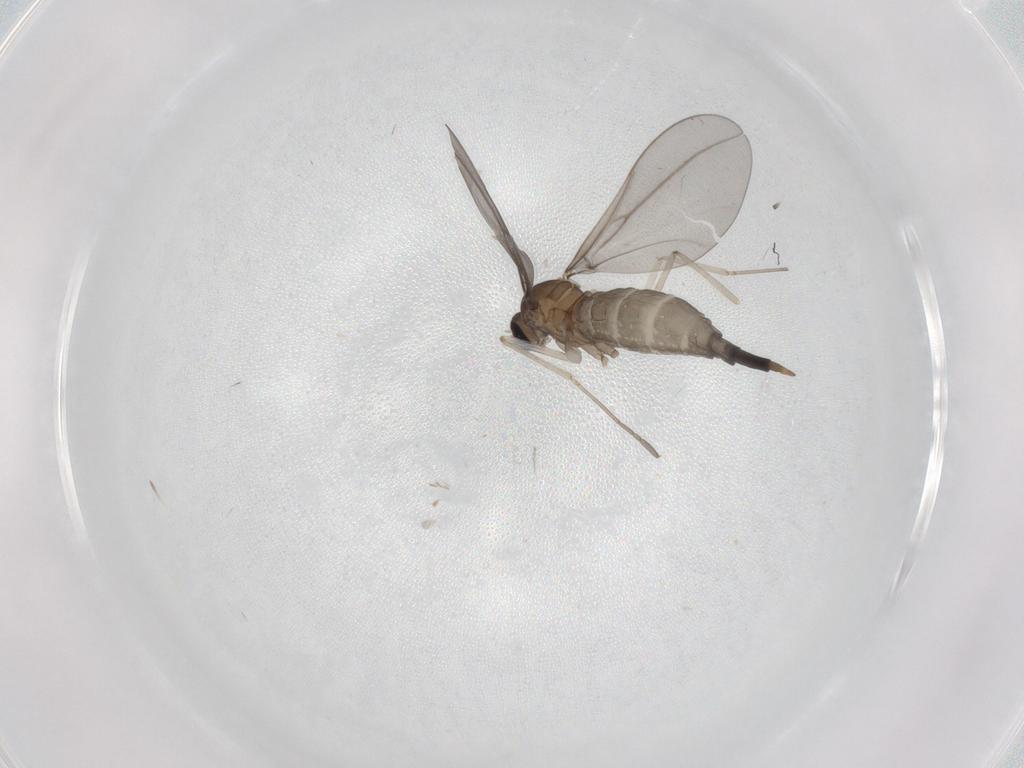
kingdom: Animalia
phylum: Arthropoda
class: Insecta
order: Diptera
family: Cecidomyiidae
